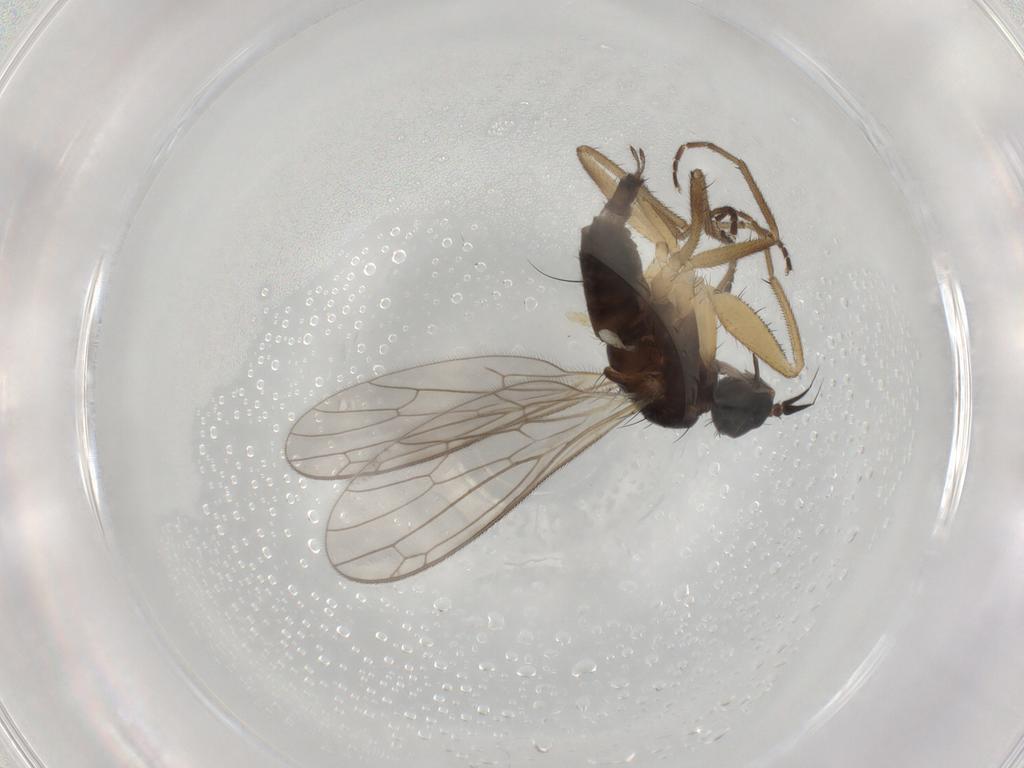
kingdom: Animalia
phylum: Arthropoda
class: Insecta
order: Diptera
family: Empididae
